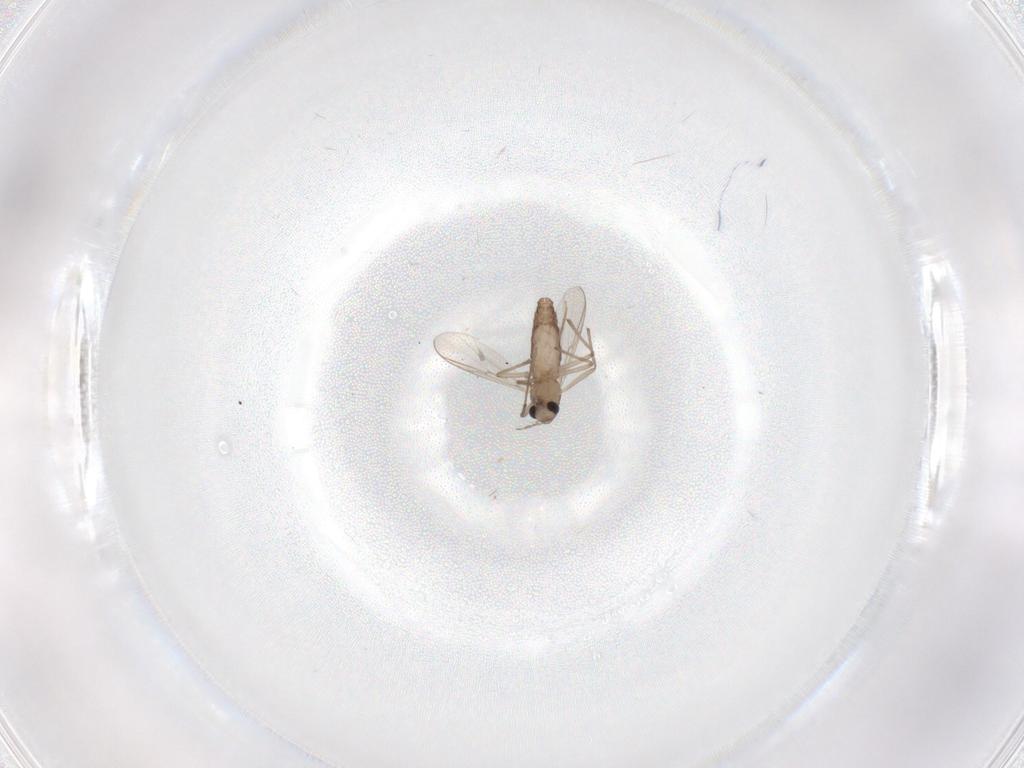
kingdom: Animalia
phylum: Arthropoda
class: Insecta
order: Diptera
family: Chironomidae
